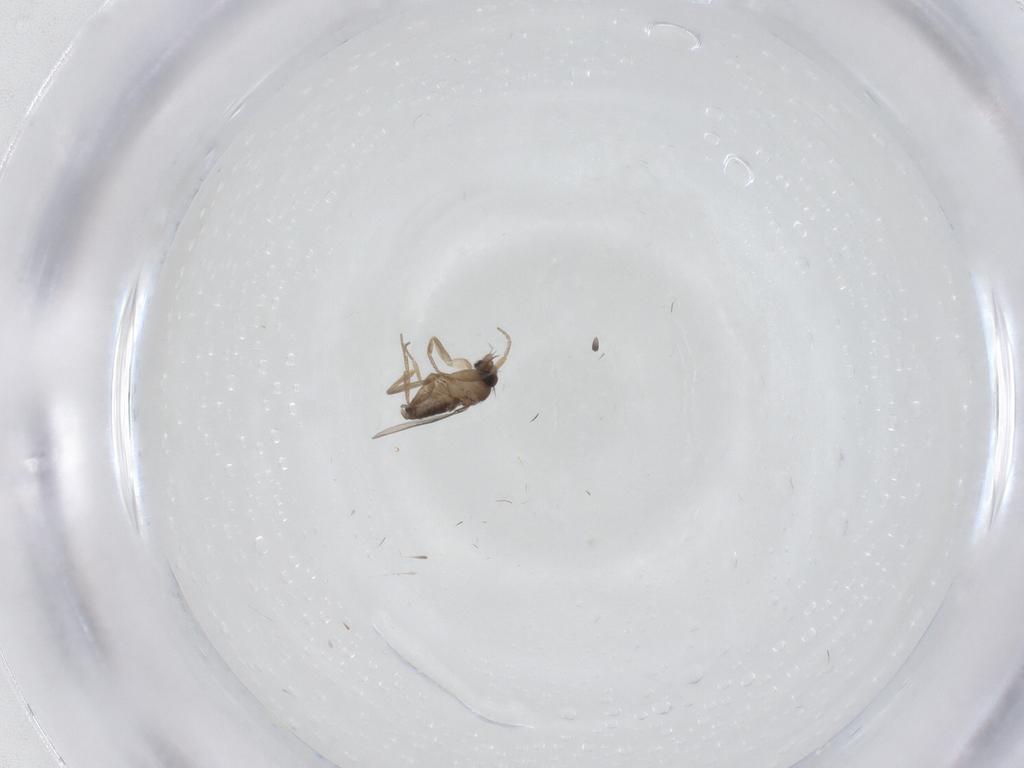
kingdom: Animalia
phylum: Arthropoda
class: Insecta
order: Diptera
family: Phoridae
